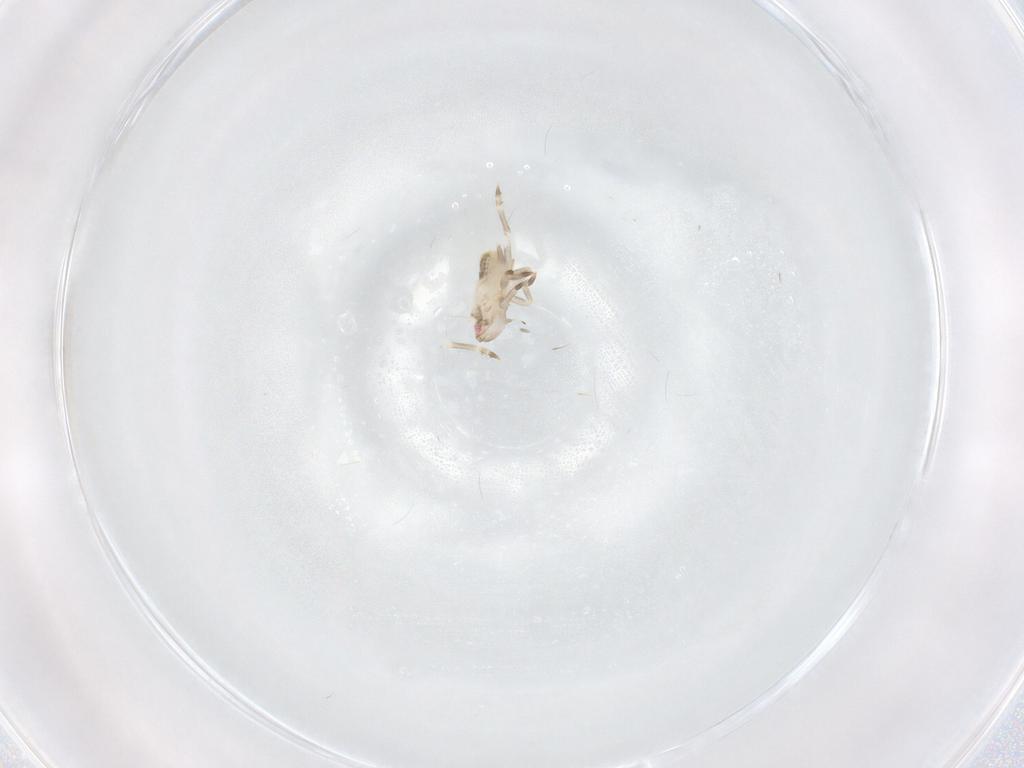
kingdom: Animalia
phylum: Arthropoda
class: Insecta
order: Hemiptera
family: Flatidae
